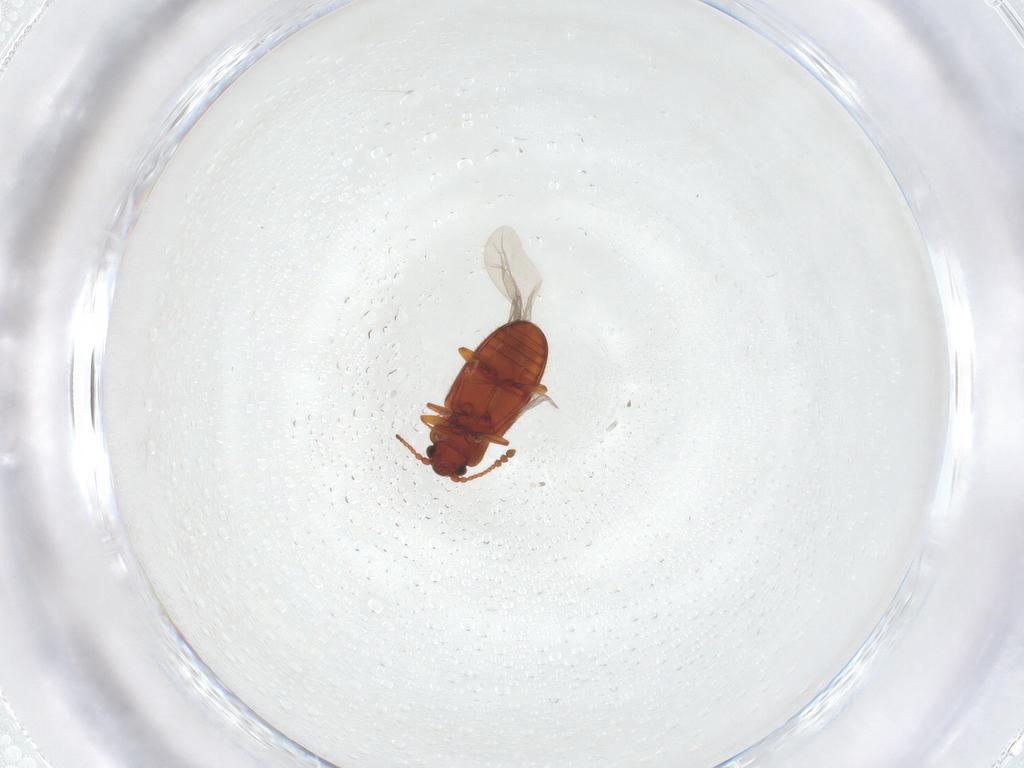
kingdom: Animalia
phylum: Arthropoda
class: Insecta
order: Coleoptera
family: Cryptophagidae
